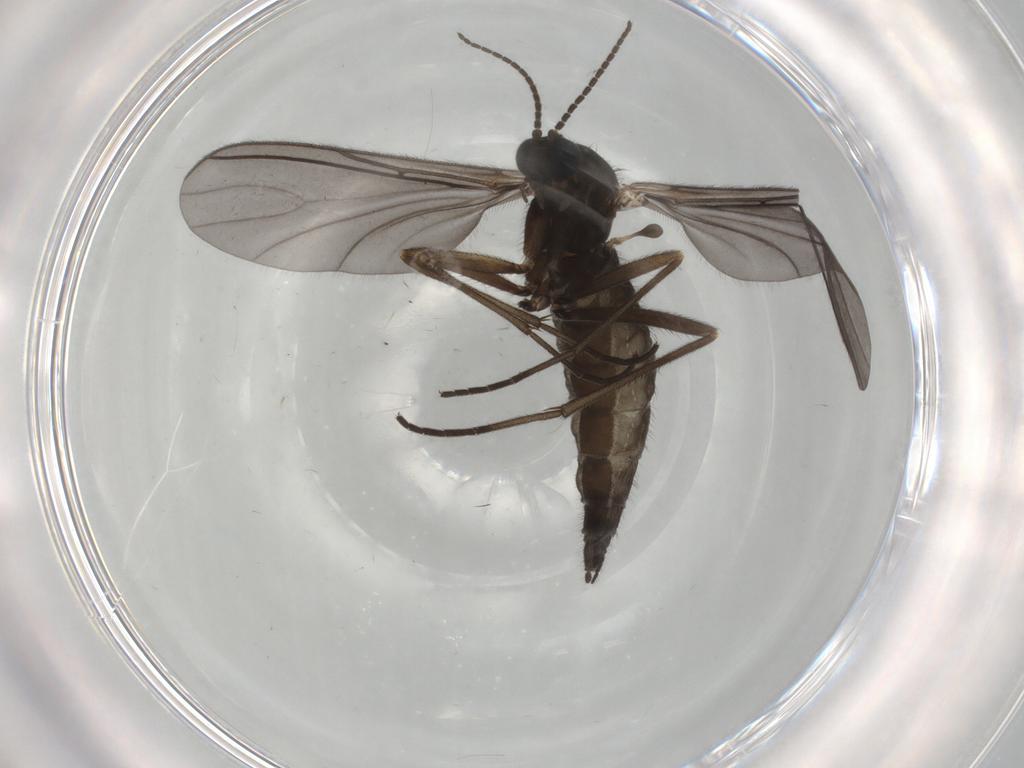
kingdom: Animalia
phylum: Arthropoda
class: Insecta
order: Diptera
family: Sciaridae
